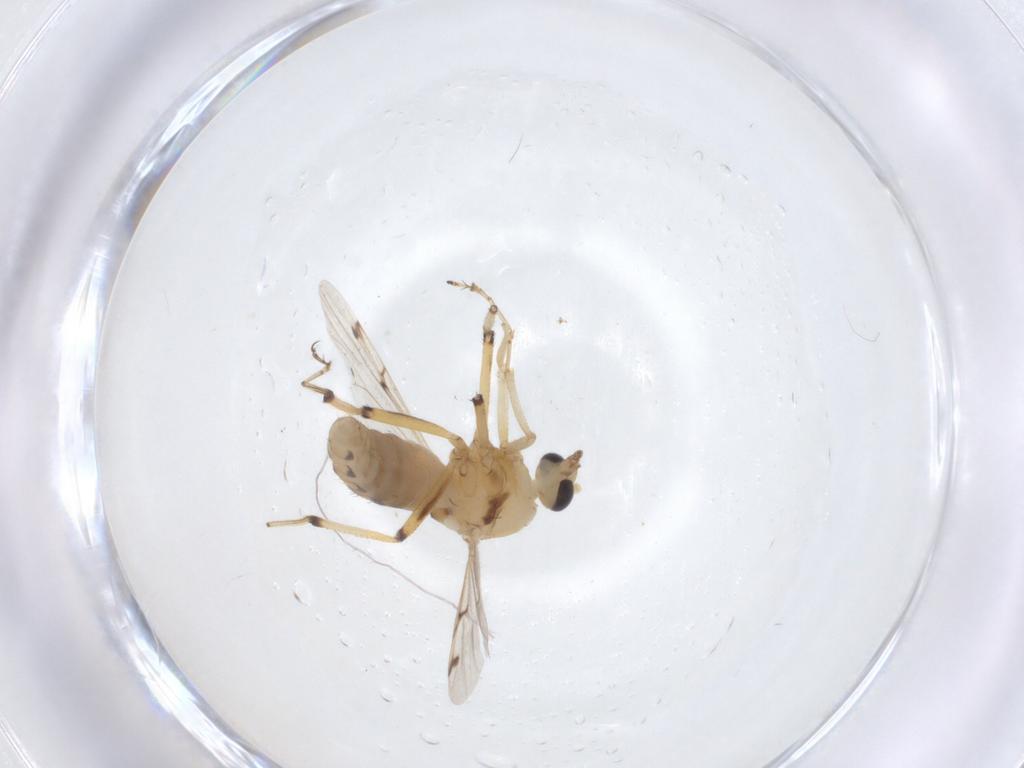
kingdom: Animalia
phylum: Arthropoda
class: Insecta
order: Diptera
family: Ceratopogonidae
